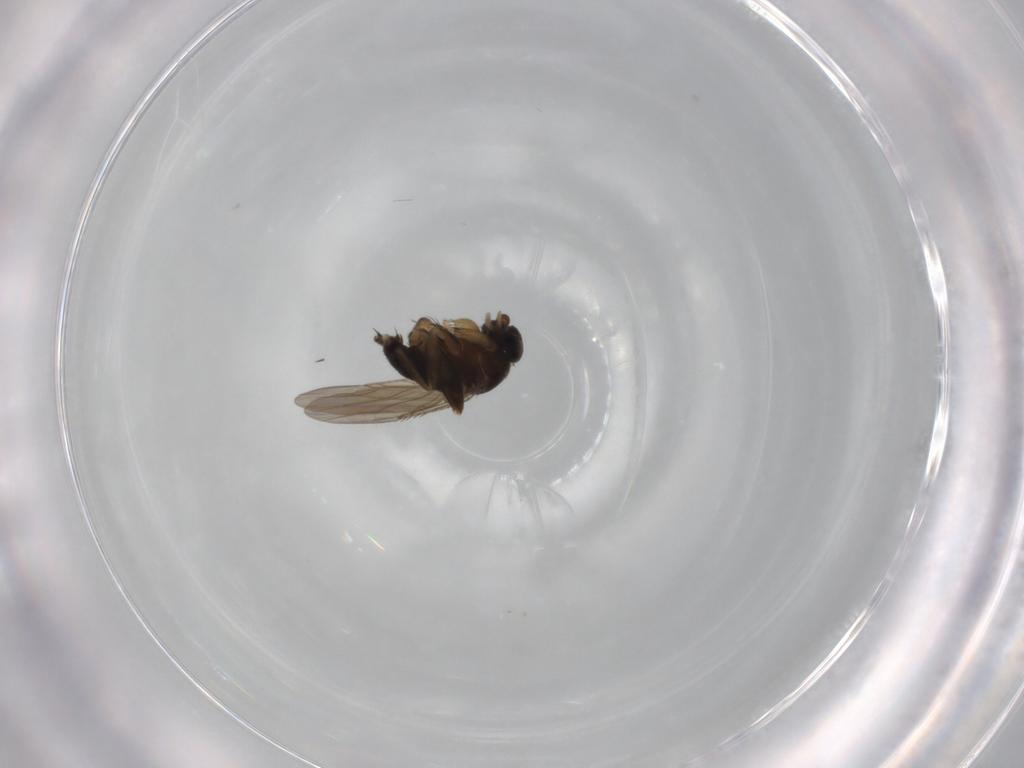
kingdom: Animalia
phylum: Arthropoda
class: Insecta
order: Diptera
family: Phoridae
